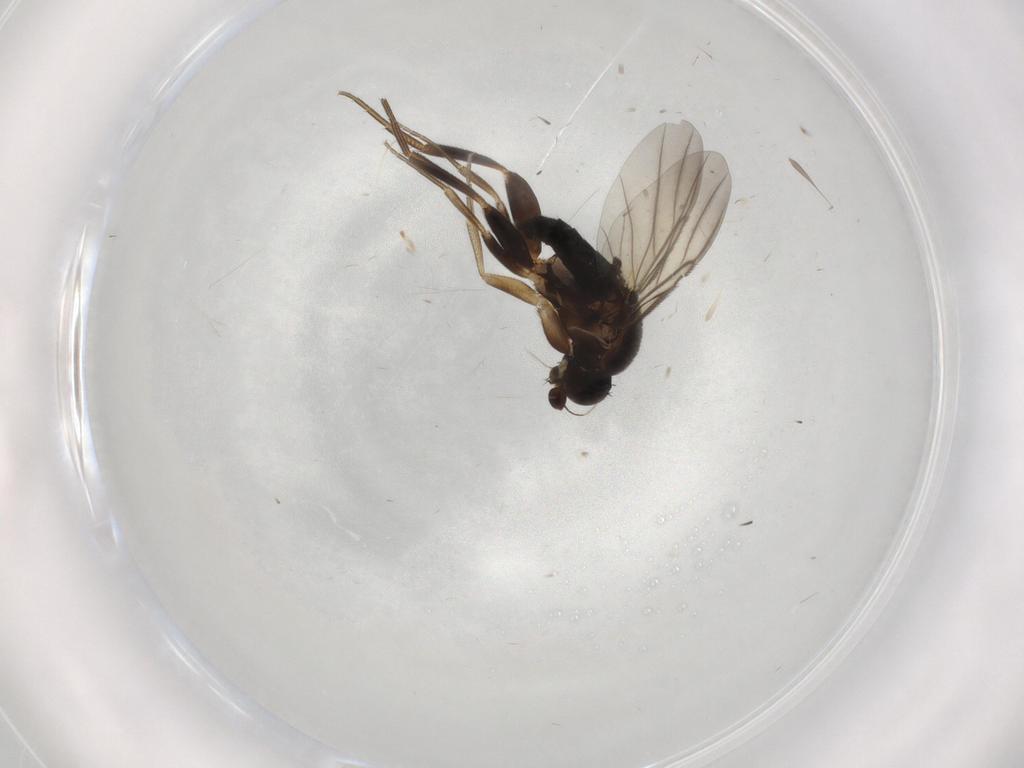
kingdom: Animalia
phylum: Arthropoda
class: Insecta
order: Diptera
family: Phoridae
